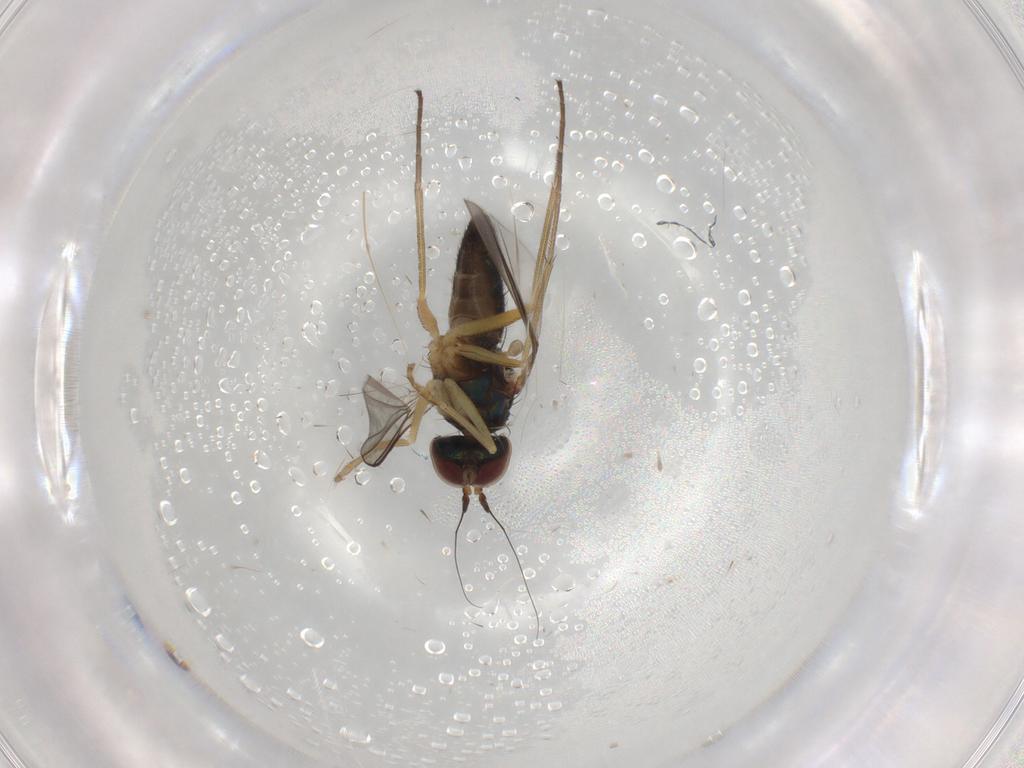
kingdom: Animalia
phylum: Arthropoda
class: Insecta
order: Diptera
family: Dolichopodidae
